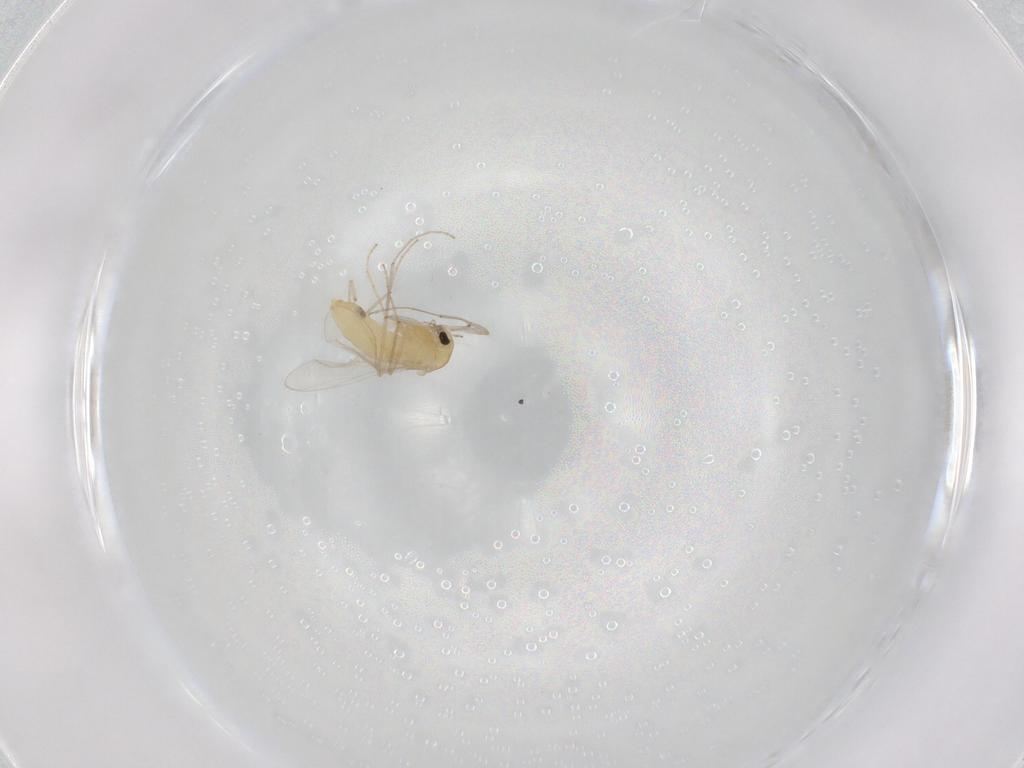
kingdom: Animalia
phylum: Arthropoda
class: Insecta
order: Diptera
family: Chironomidae
